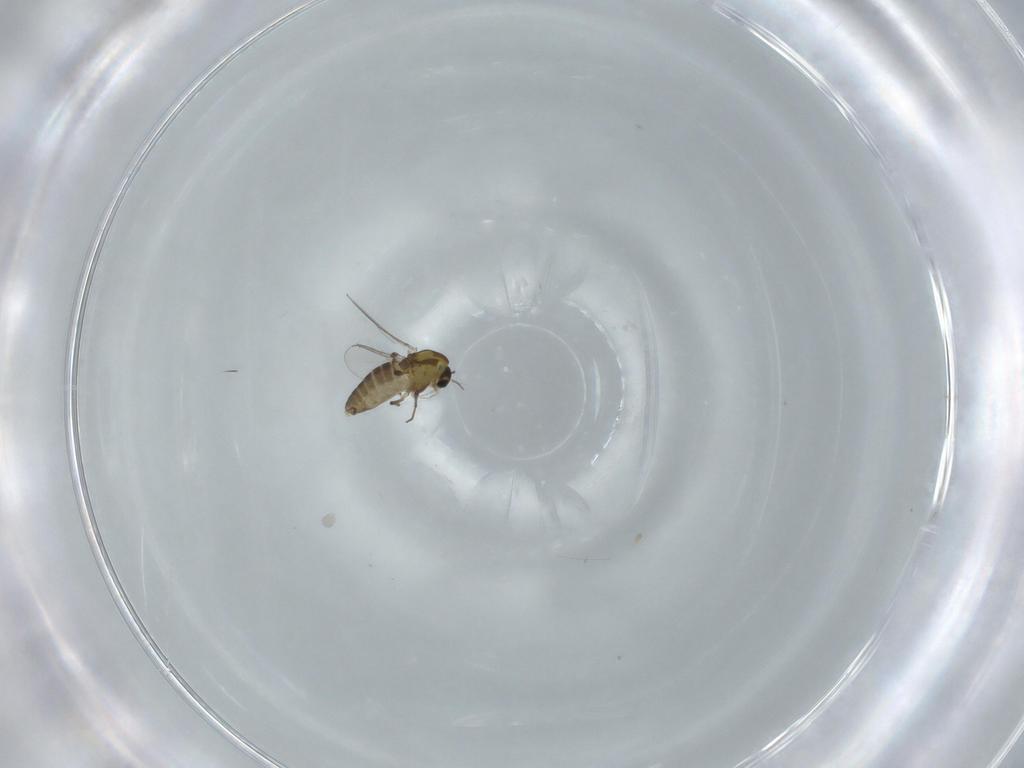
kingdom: Animalia
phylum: Arthropoda
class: Insecta
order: Diptera
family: Chironomidae
